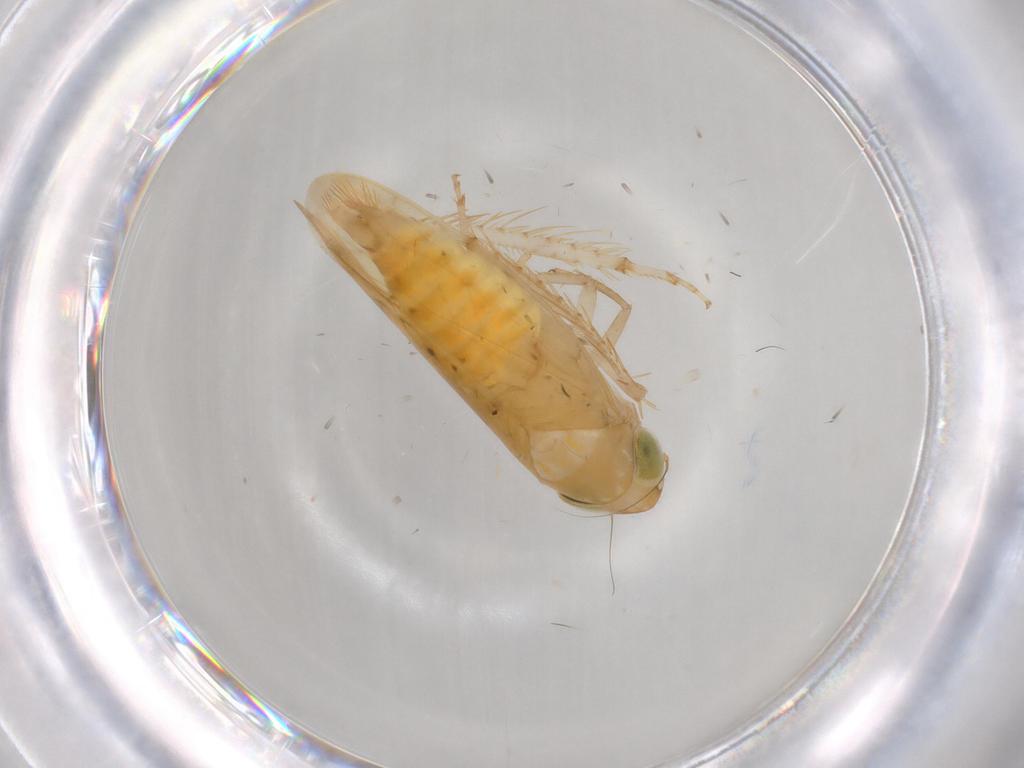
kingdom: Animalia
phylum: Arthropoda
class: Insecta
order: Hemiptera
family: Cicadellidae
